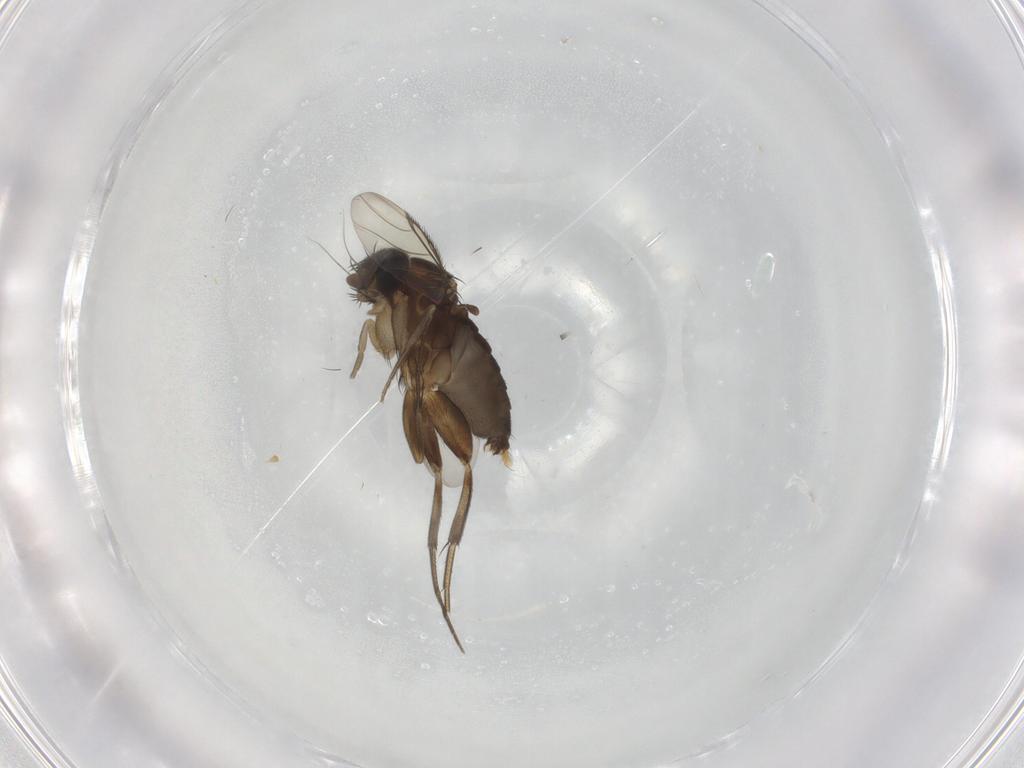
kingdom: Animalia
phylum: Arthropoda
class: Insecta
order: Diptera
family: Phoridae
